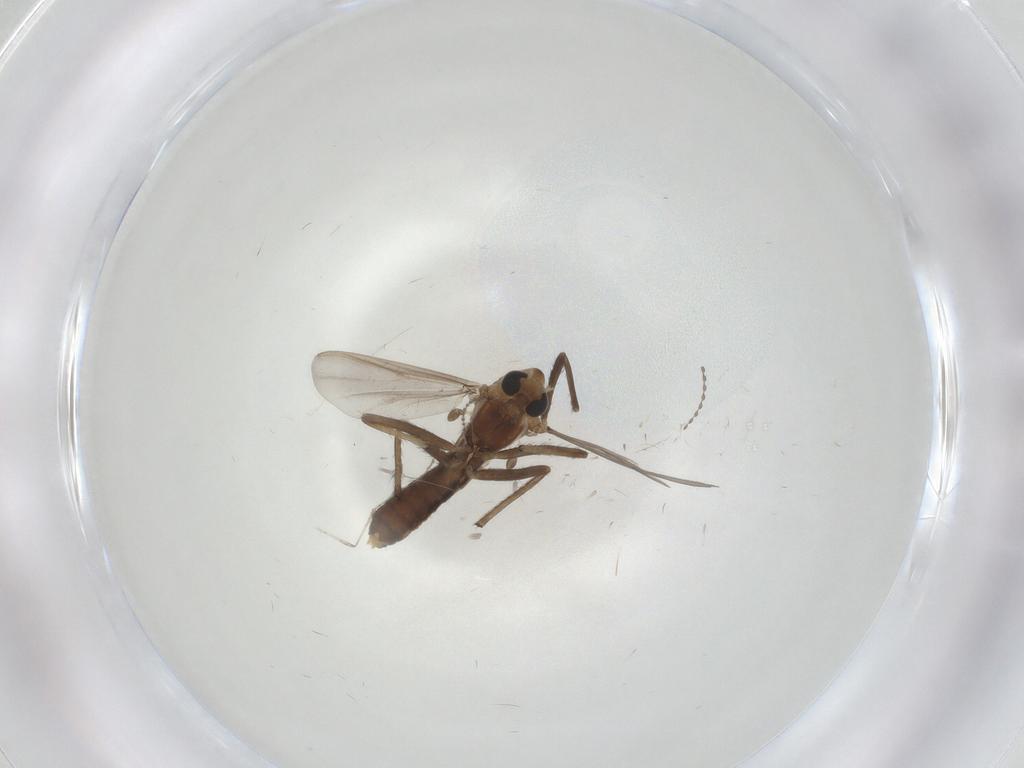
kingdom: Animalia
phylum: Arthropoda
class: Insecta
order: Diptera
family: Chironomidae
